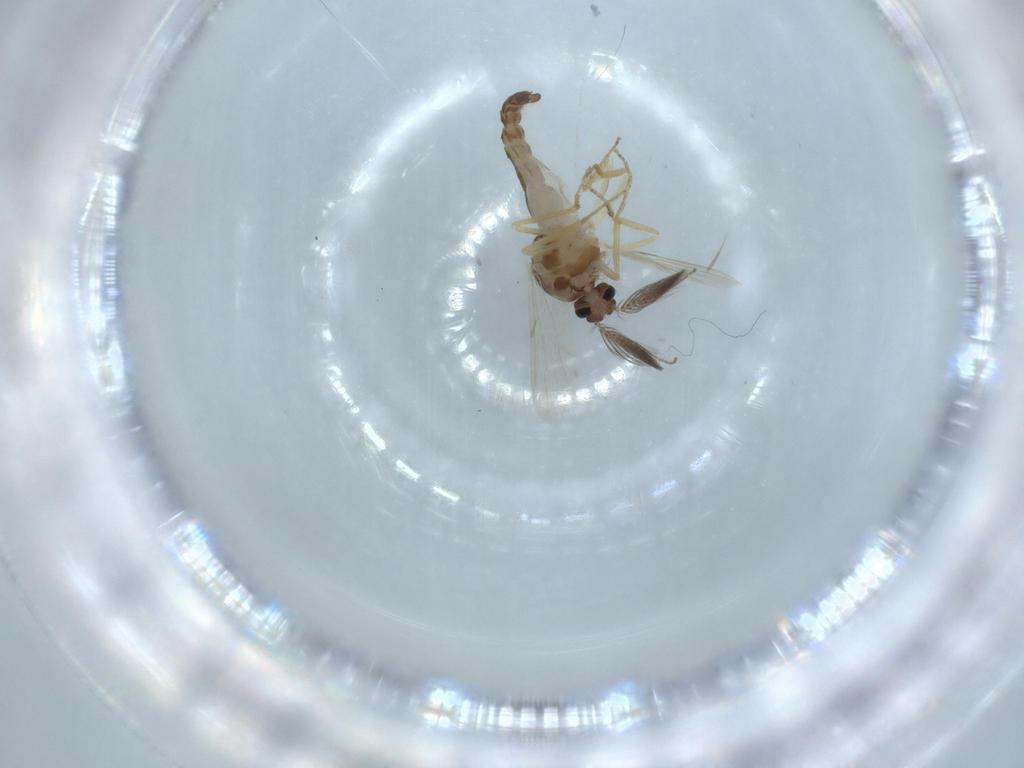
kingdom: Animalia
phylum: Arthropoda
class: Insecta
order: Diptera
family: Ceratopogonidae
